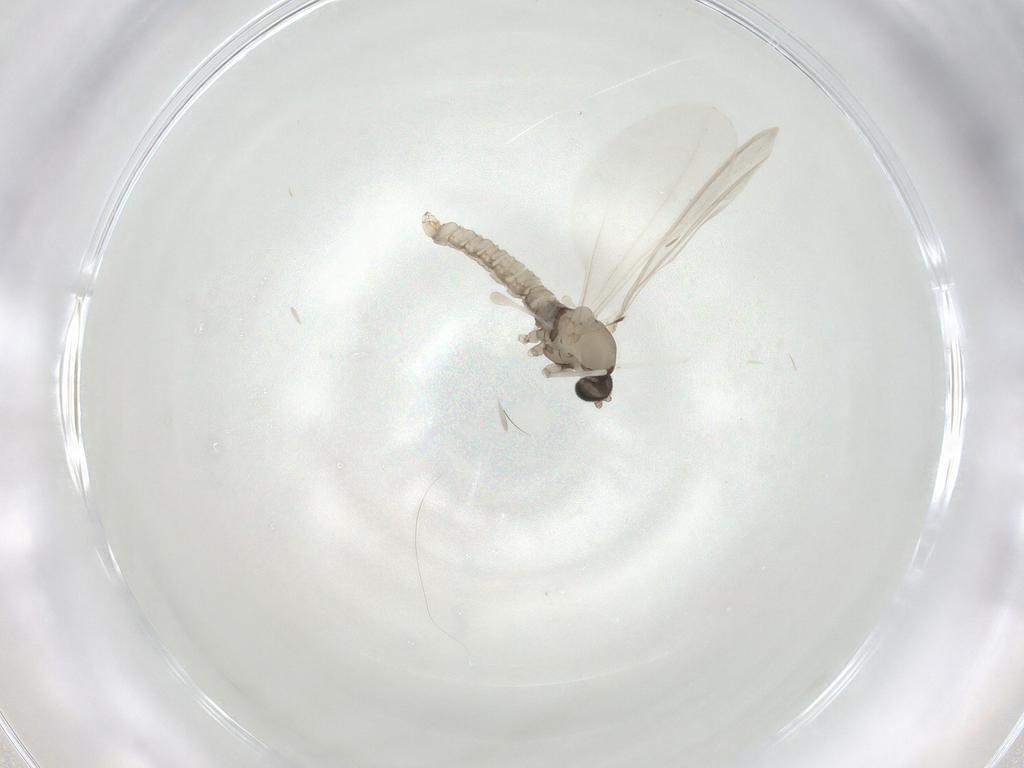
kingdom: Animalia
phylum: Arthropoda
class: Insecta
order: Diptera
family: Cecidomyiidae
